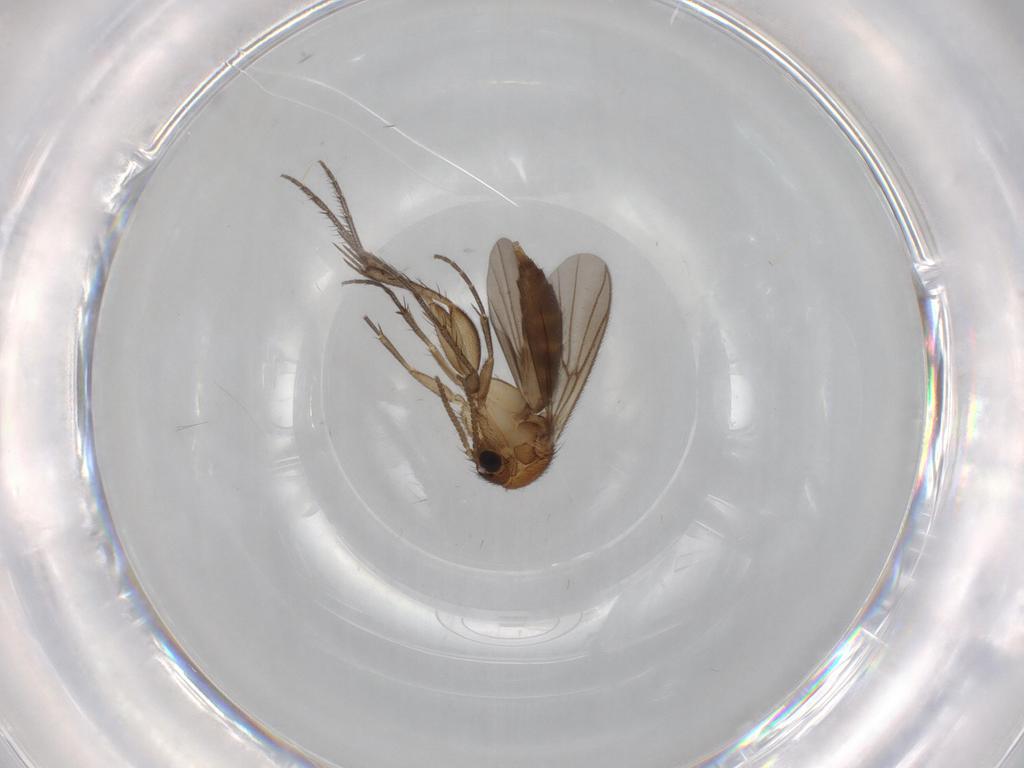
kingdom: Animalia
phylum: Arthropoda
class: Insecta
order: Diptera
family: Mycetophilidae
